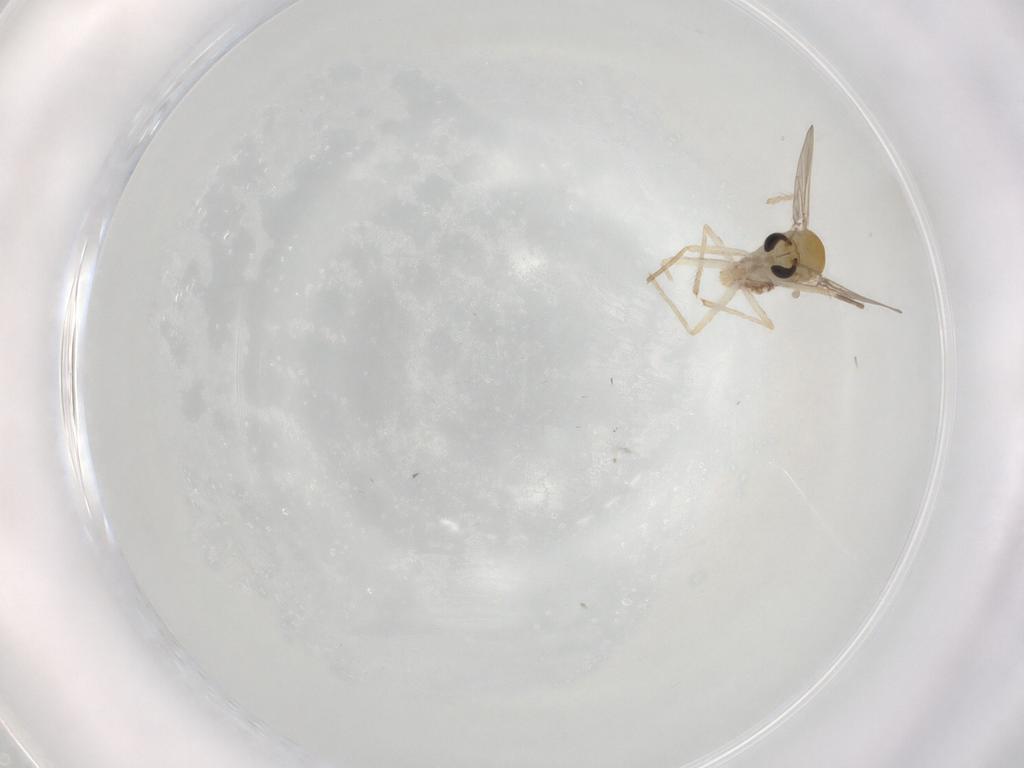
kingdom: Animalia
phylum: Arthropoda
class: Insecta
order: Diptera
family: Chironomidae
